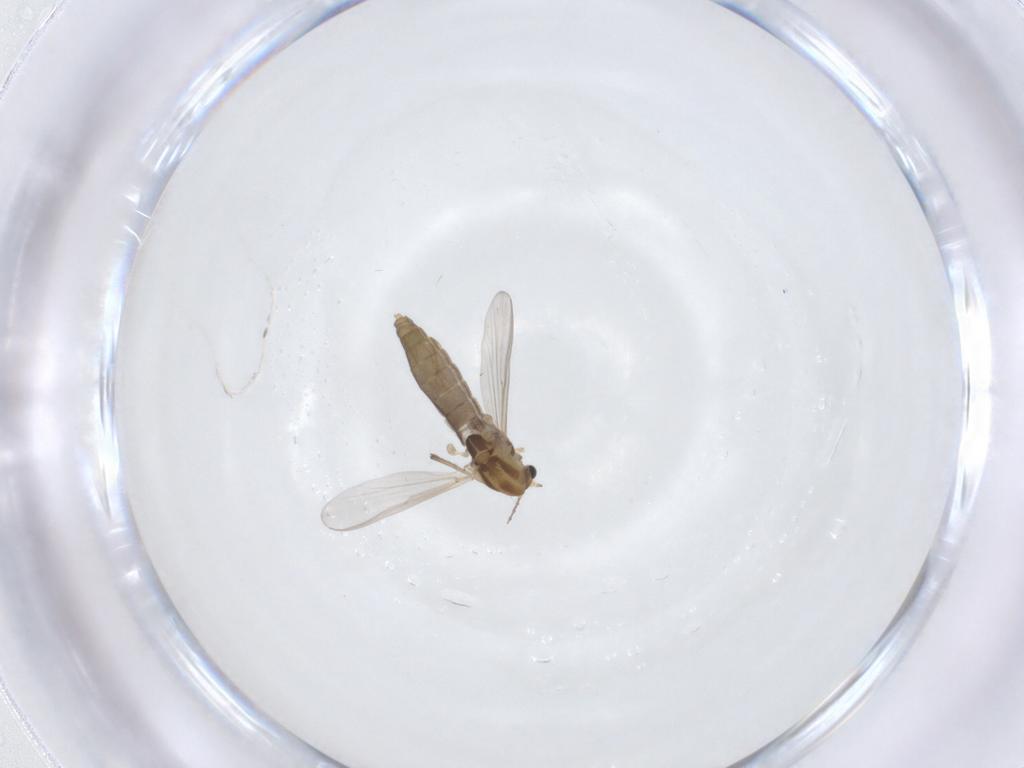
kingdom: Animalia
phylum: Arthropoda
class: Insecta
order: Diptera
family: Chironomidae
